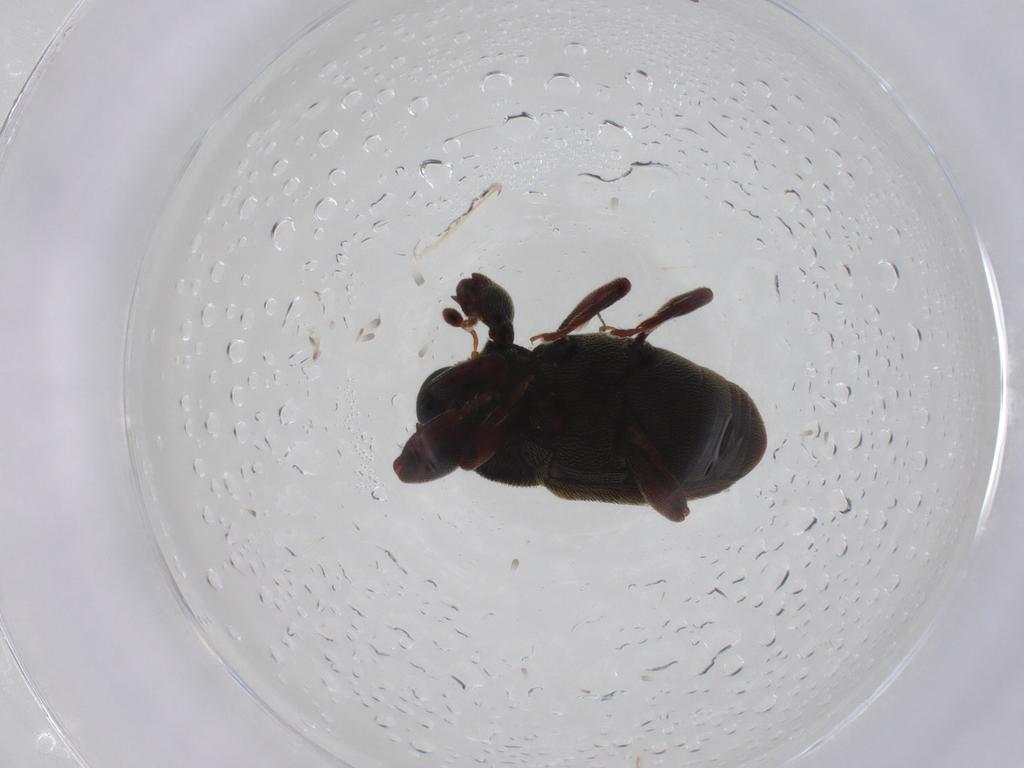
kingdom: Animalia
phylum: Arthropoda
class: Insecta
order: Coleoptera
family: Curculionidae
